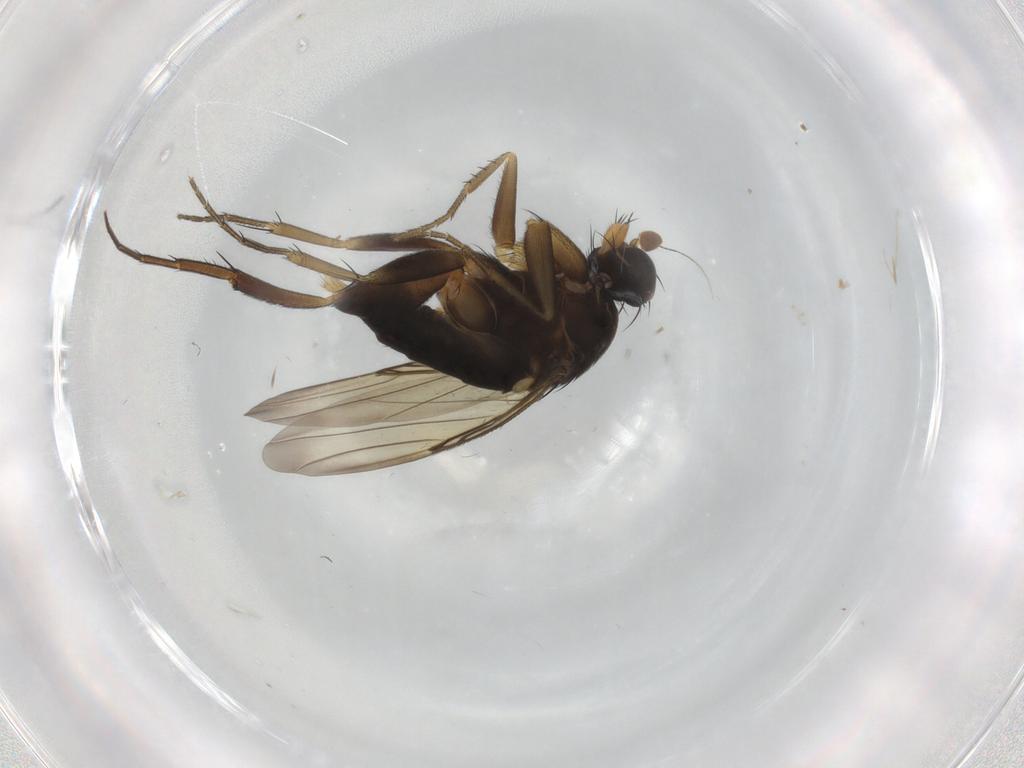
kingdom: Animalia
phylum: Arthropoda
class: Insecta
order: Diptera
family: Phoridae
